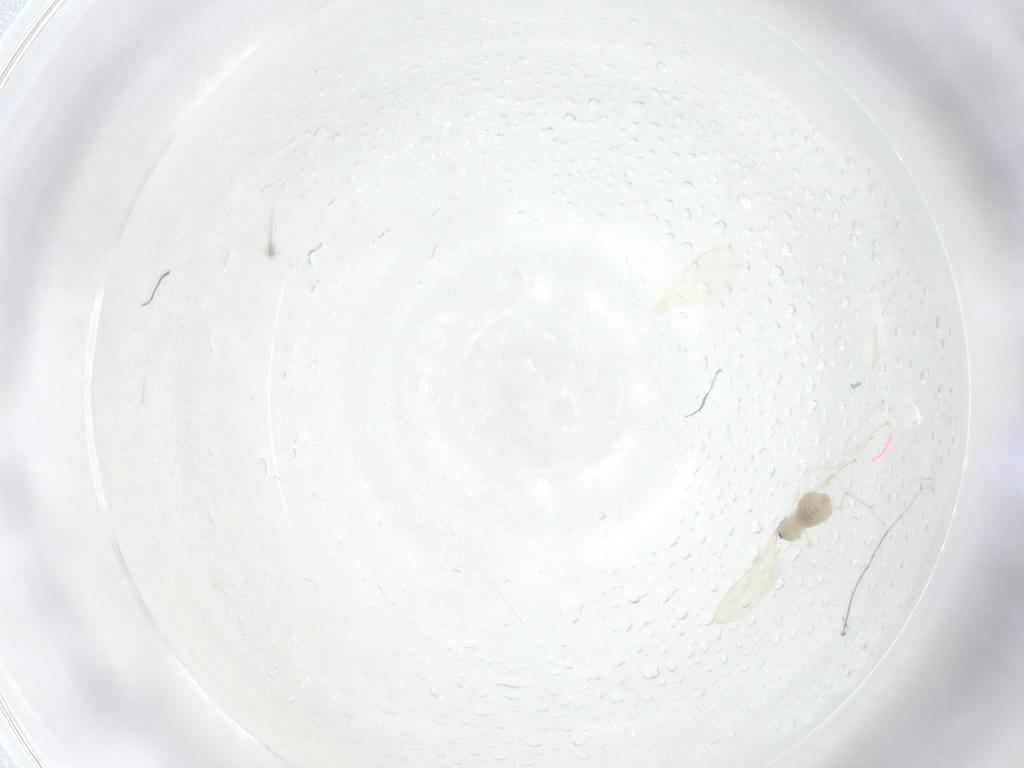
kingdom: Animalia
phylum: Arthropoda
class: Insecta
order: Diptera
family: Cecidomyiidae
